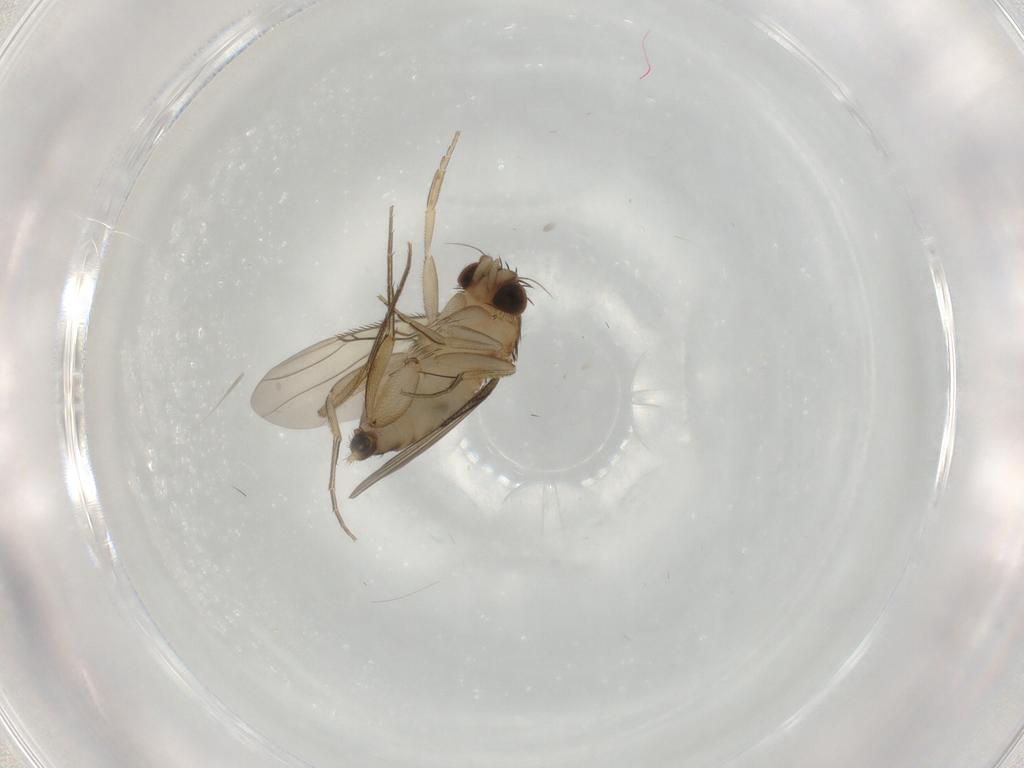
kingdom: Animalia
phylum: Arthropoda
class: Insecta
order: Diptera
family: Phoridae
